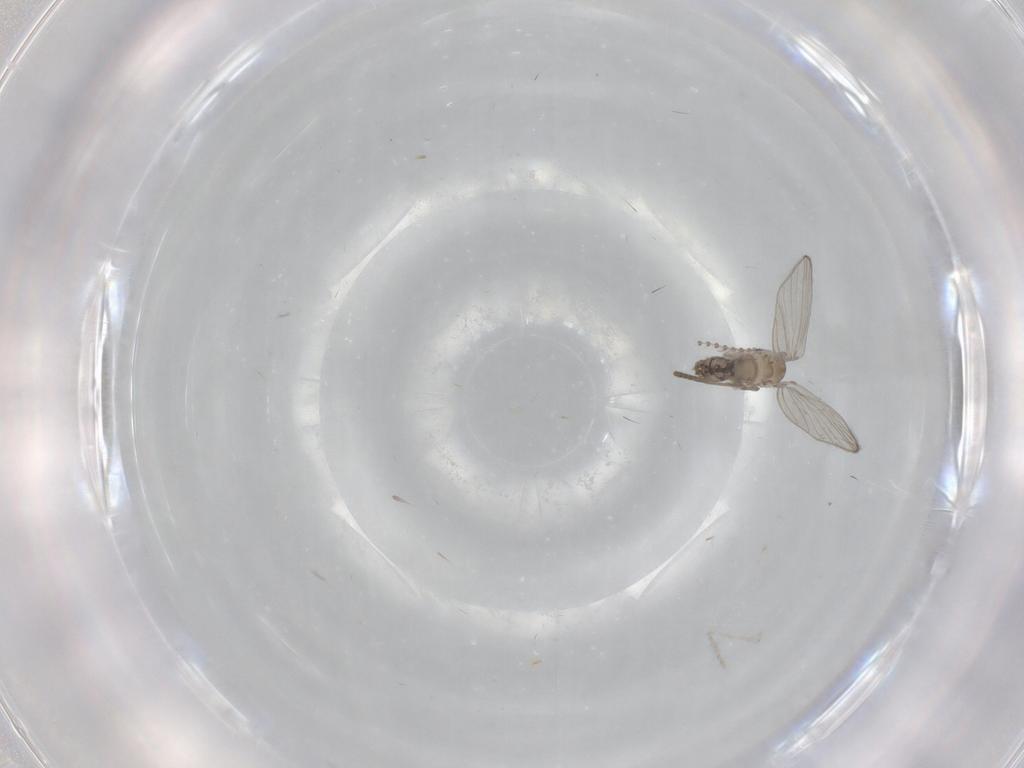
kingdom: Animalia
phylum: Arthropoda
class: Insecta
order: Diptera
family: Psychodidae
